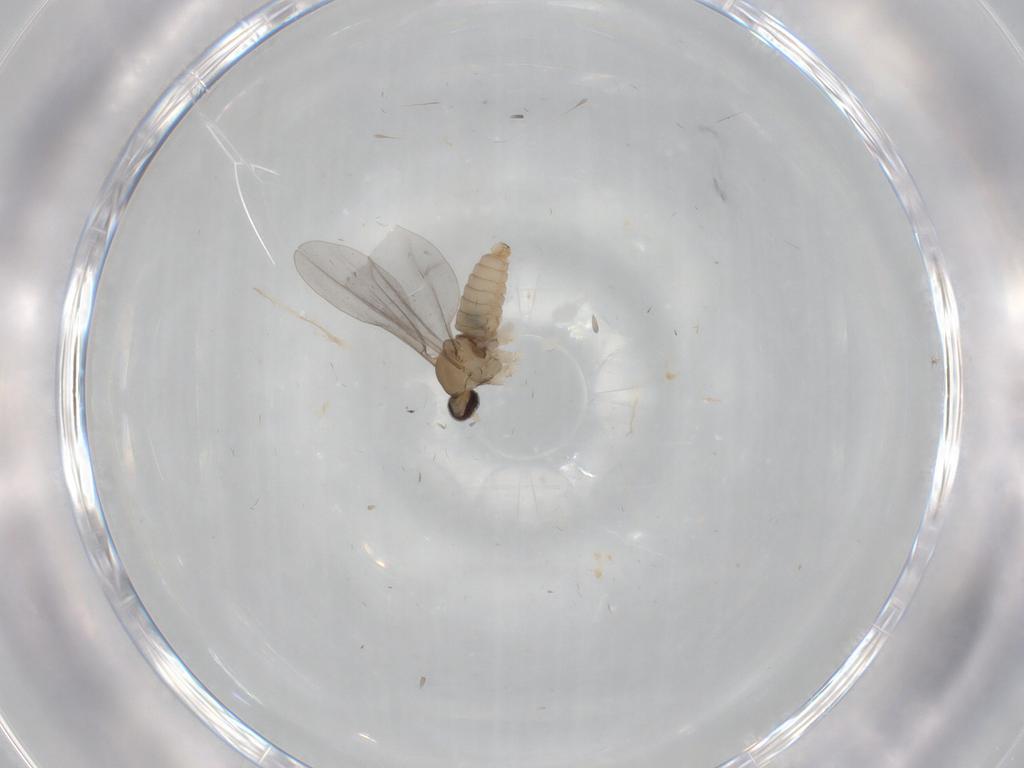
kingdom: Animalia
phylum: Arthropoda
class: Insecta
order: Diptera
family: Cecidomyiidae
